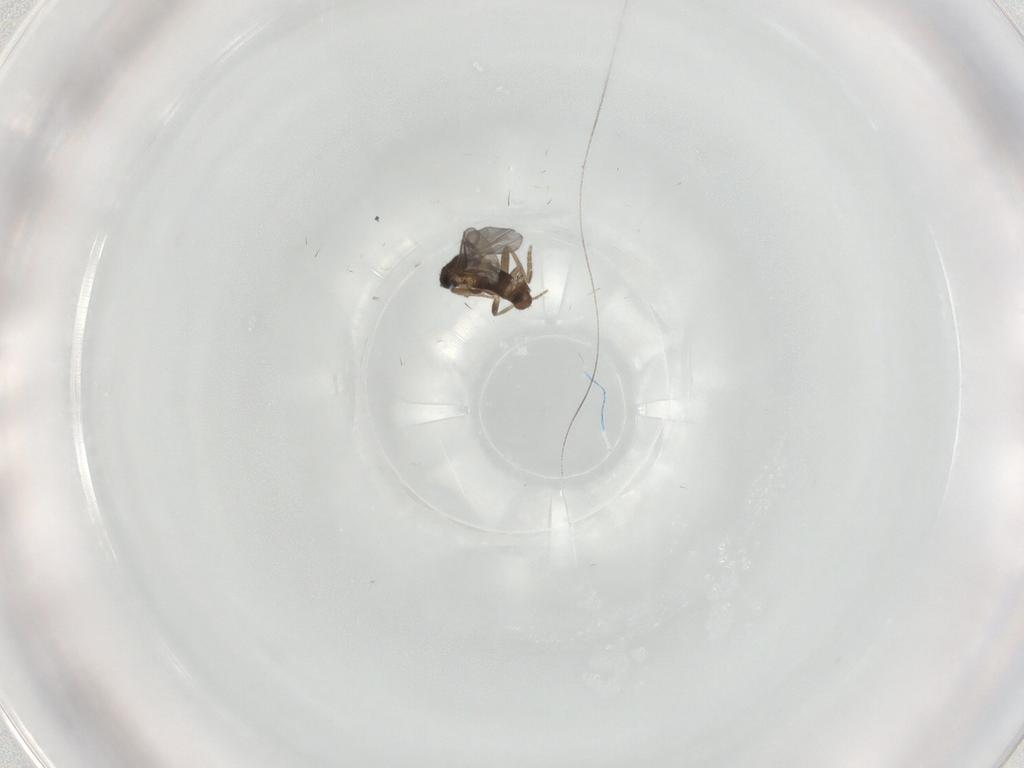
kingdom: Animalia
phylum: Arthropoda
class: Insecta
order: Diptera
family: Chironomidae
